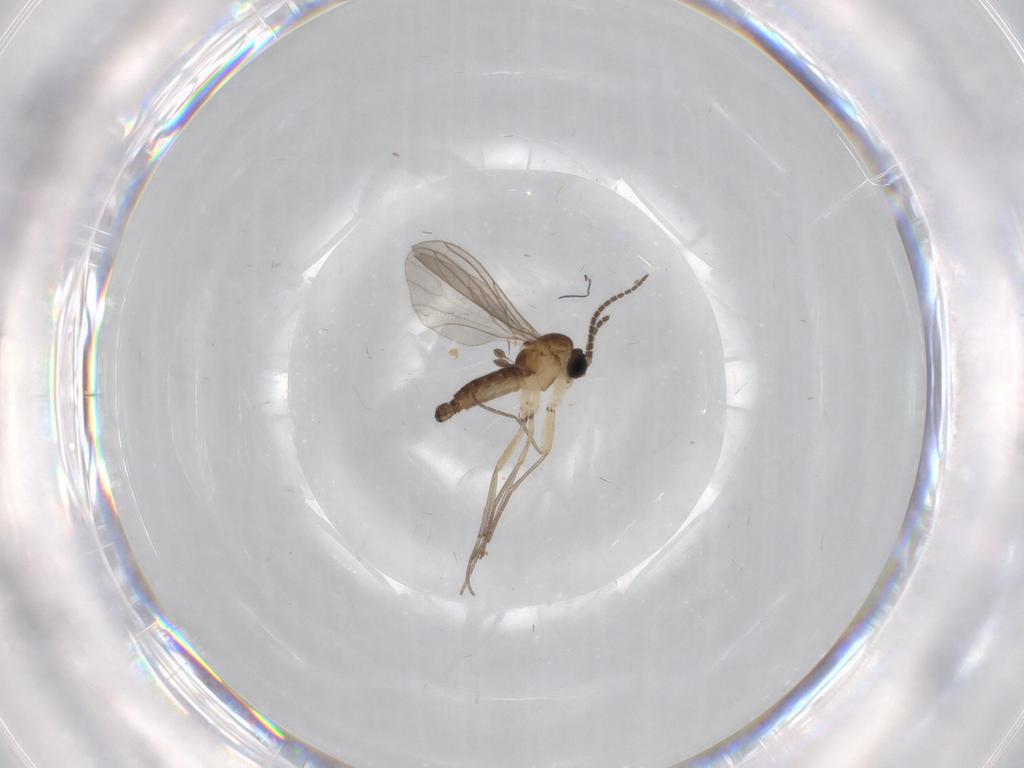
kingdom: Animalia
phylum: Arthropoda
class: Insecta
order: Diptera
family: Sciaridae
